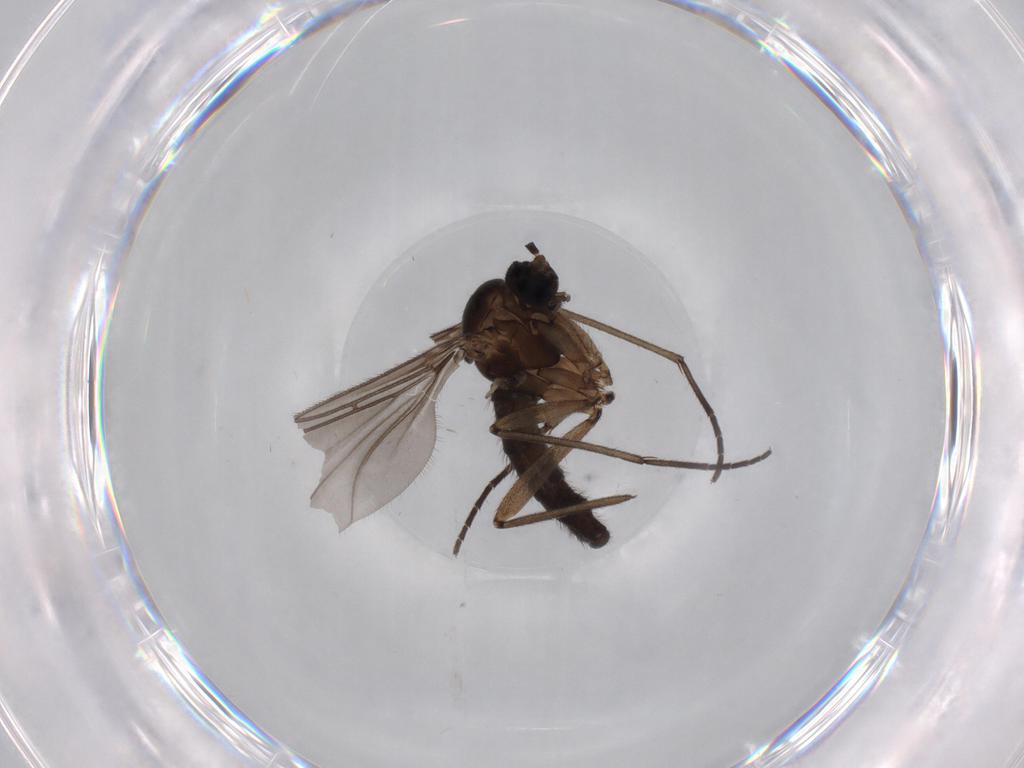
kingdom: Animalia
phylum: Arthropoda
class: Insecta
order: Diptera
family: Sciaridae
